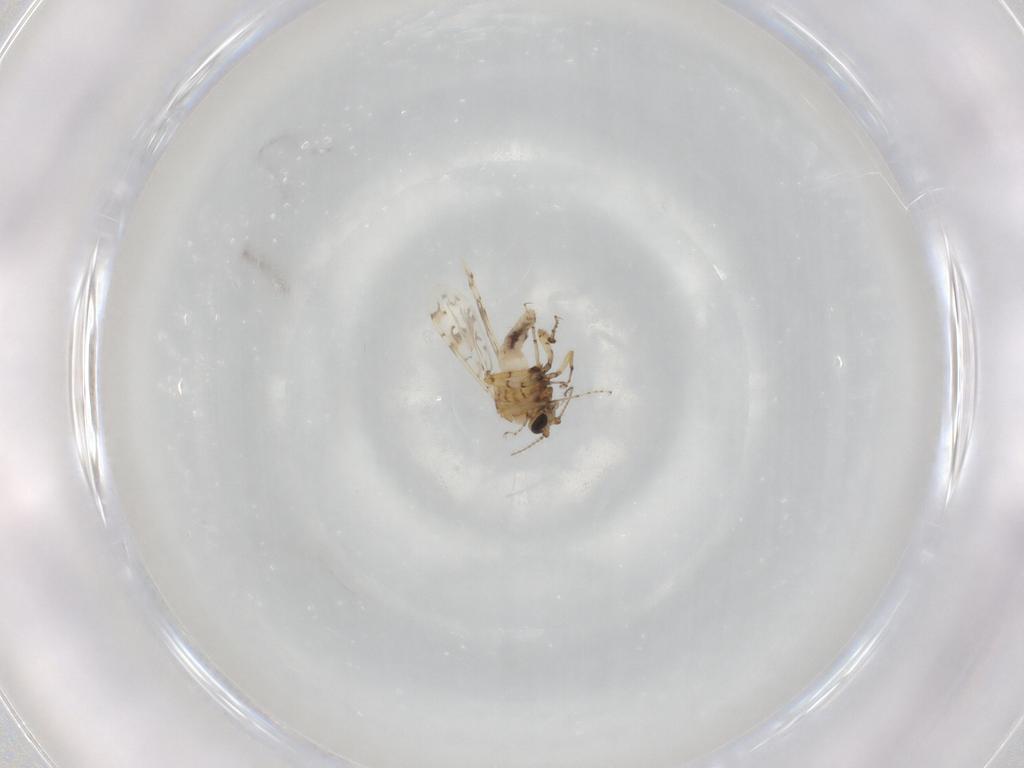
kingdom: Animalia
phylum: Arthropoda
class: Insecta
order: Diptera
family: Ceratopogonidae
